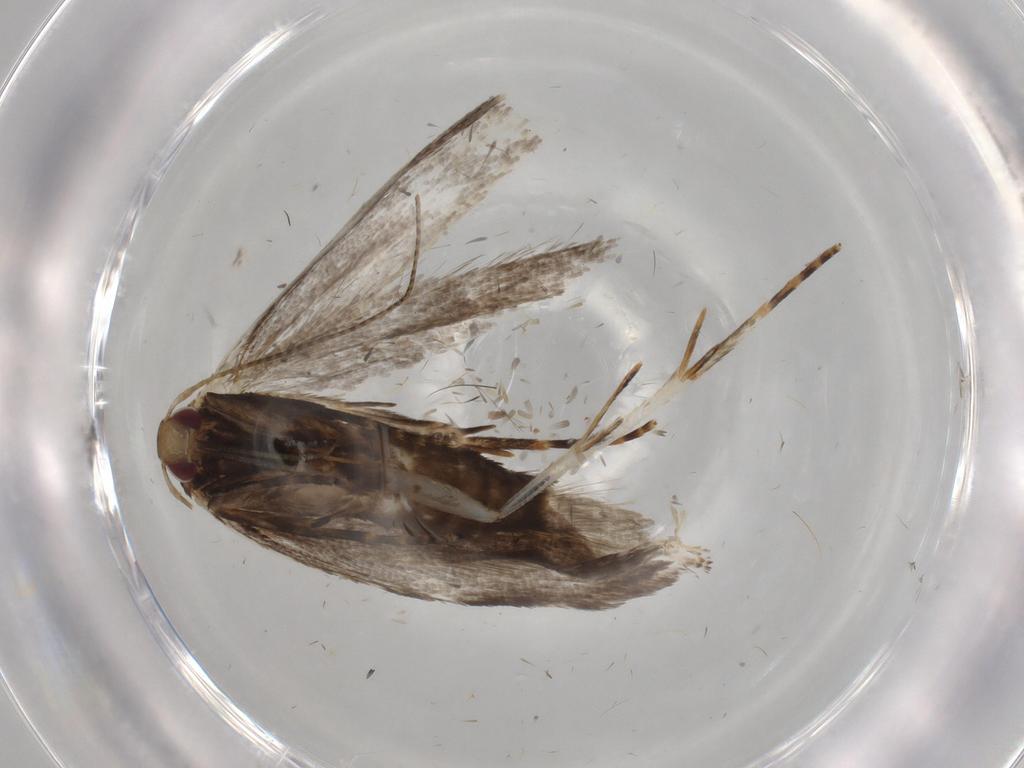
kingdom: Animalia
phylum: Arthropoda
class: Insecta
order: Lepidoptera
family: Gelechiidae
